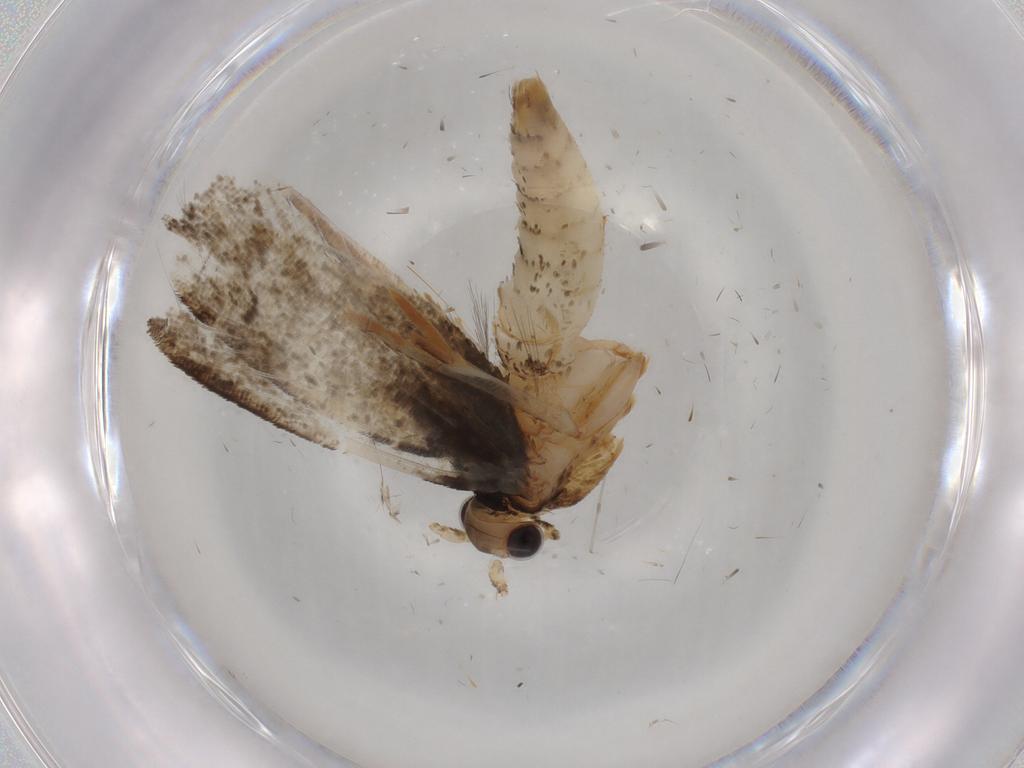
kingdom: Animalia
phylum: Arthropoda
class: Insecta
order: Lepidoptera
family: Tineidae
